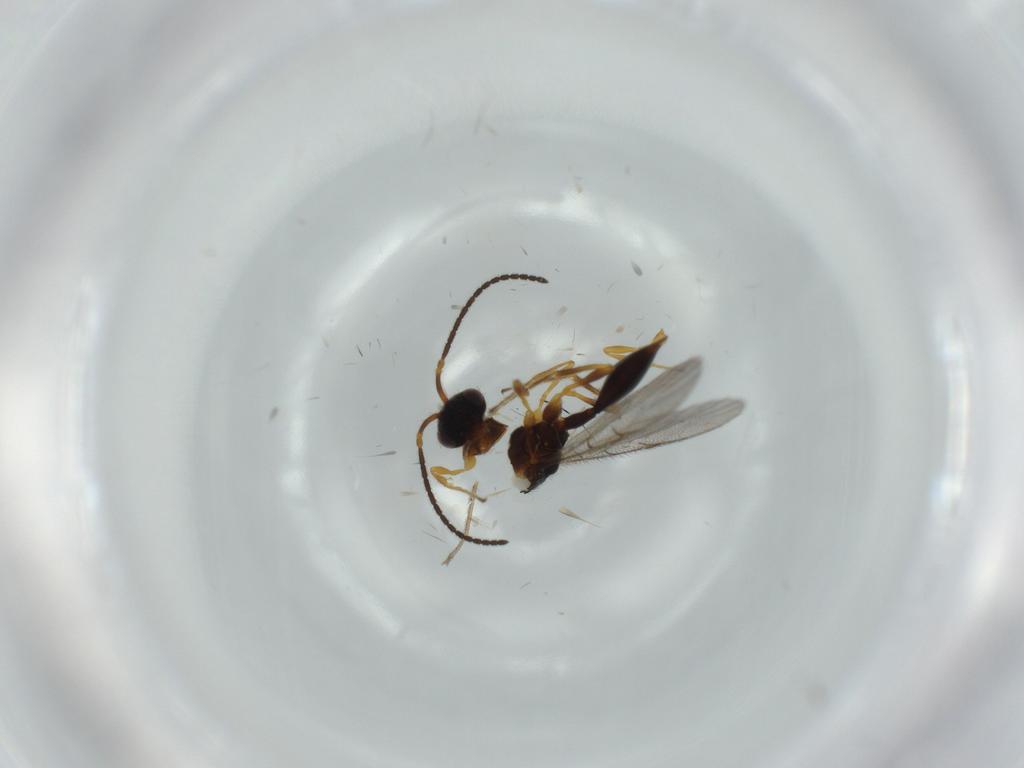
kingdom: Animalia
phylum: Arthropoda
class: Insecta
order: Hymenoptera
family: Diapriidae
